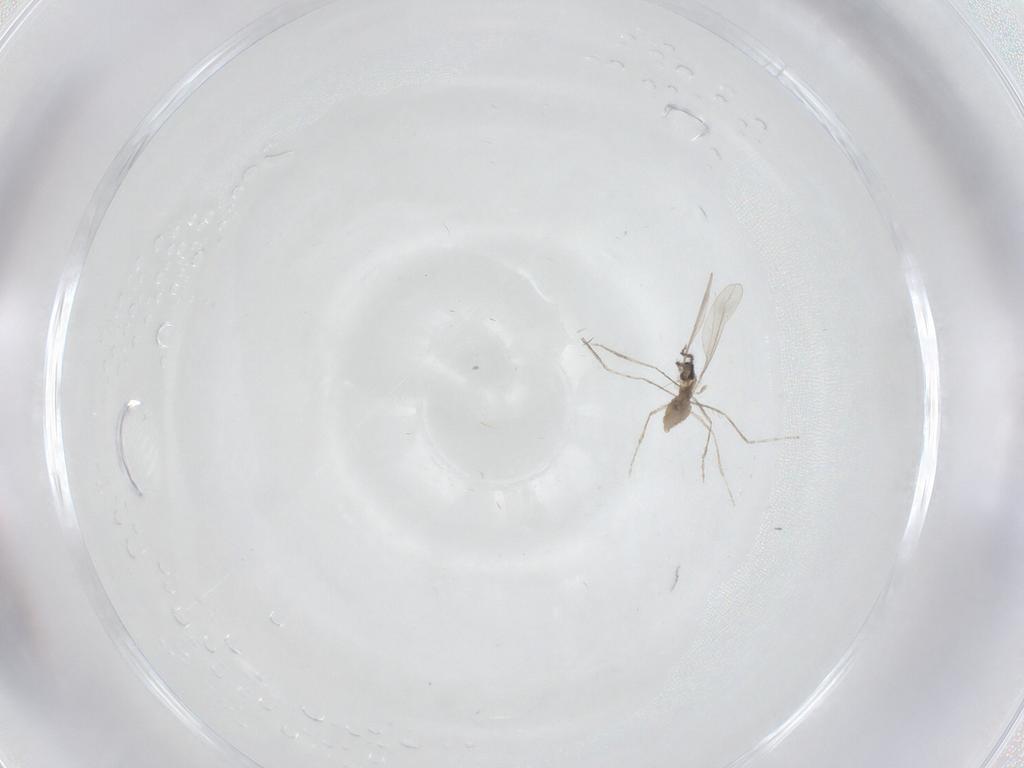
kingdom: Animalia
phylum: Arthropoda
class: Insecta
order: Diptera
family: Cecidomyiidae
